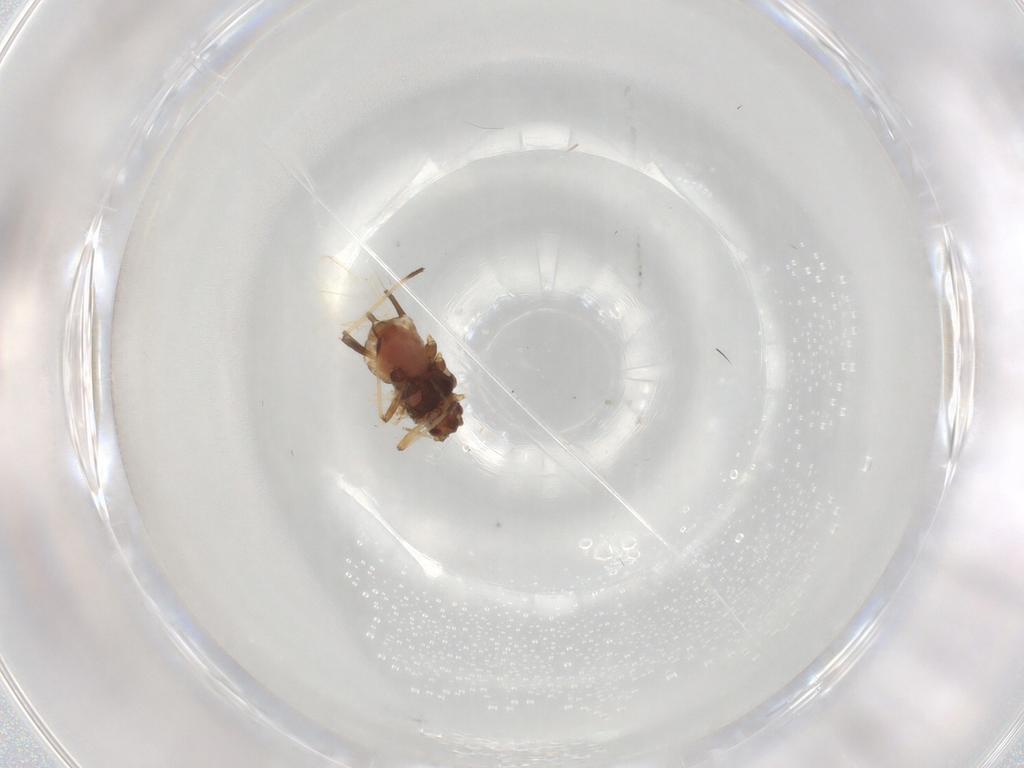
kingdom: Animalia
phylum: Arthropoda
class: Insecta
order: Hemiptera
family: Aphididae
